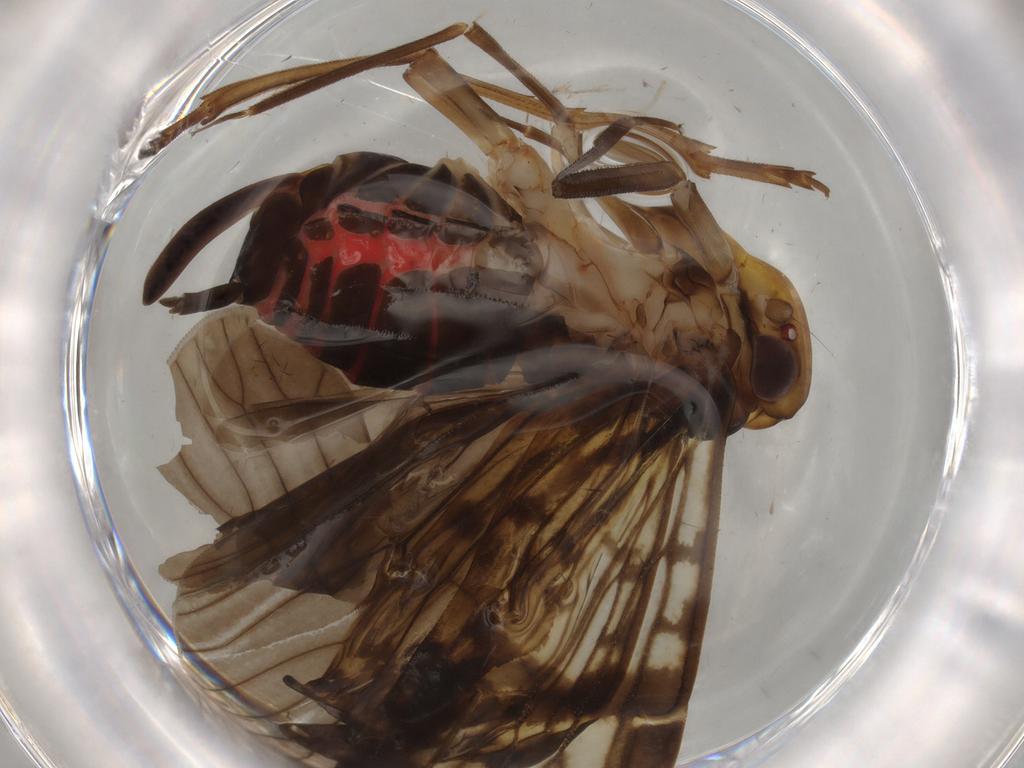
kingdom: Animalia
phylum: Arthropoda
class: Insecta
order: Hemiptera
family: Cixiidae
